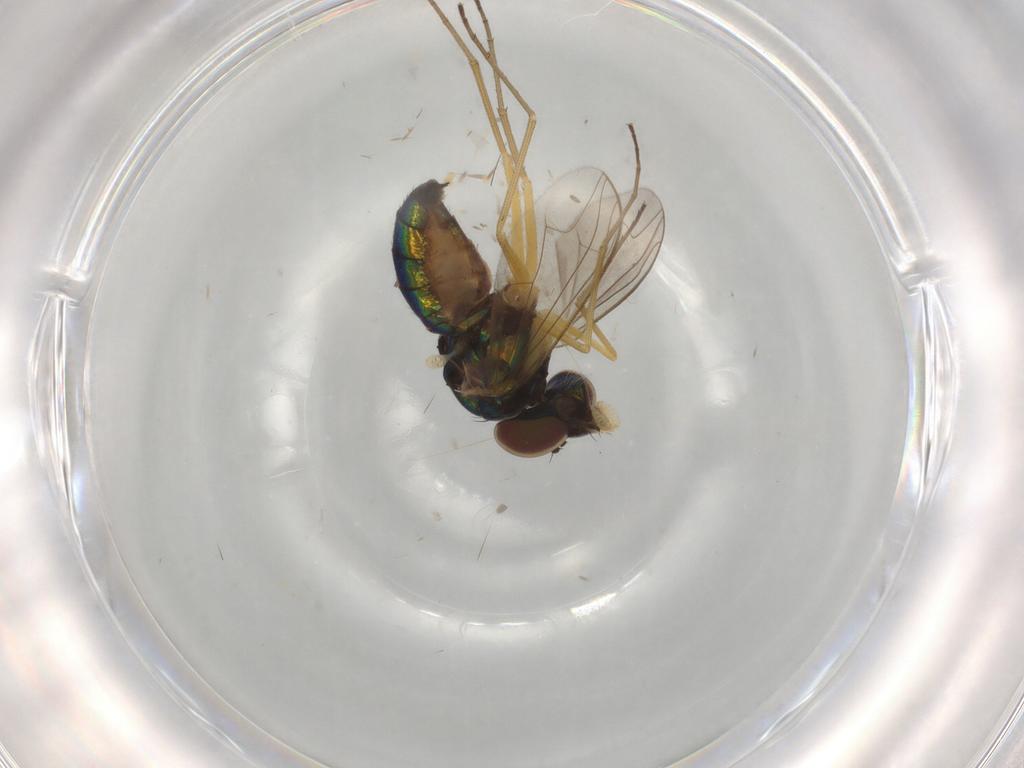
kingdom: Animalia
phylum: Arthropoda
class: Insecta
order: Diptera
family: Dolichopodidae
